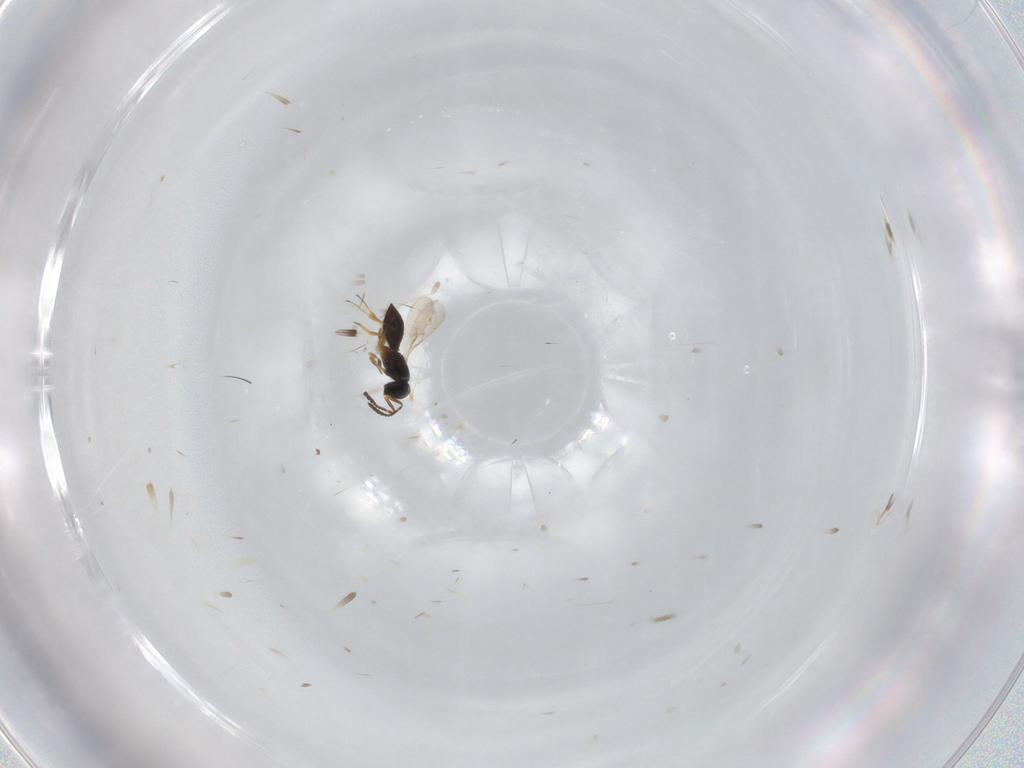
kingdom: Animalia
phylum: Arthropoda
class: Insecta
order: Hymenoptera
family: Scelionidae
